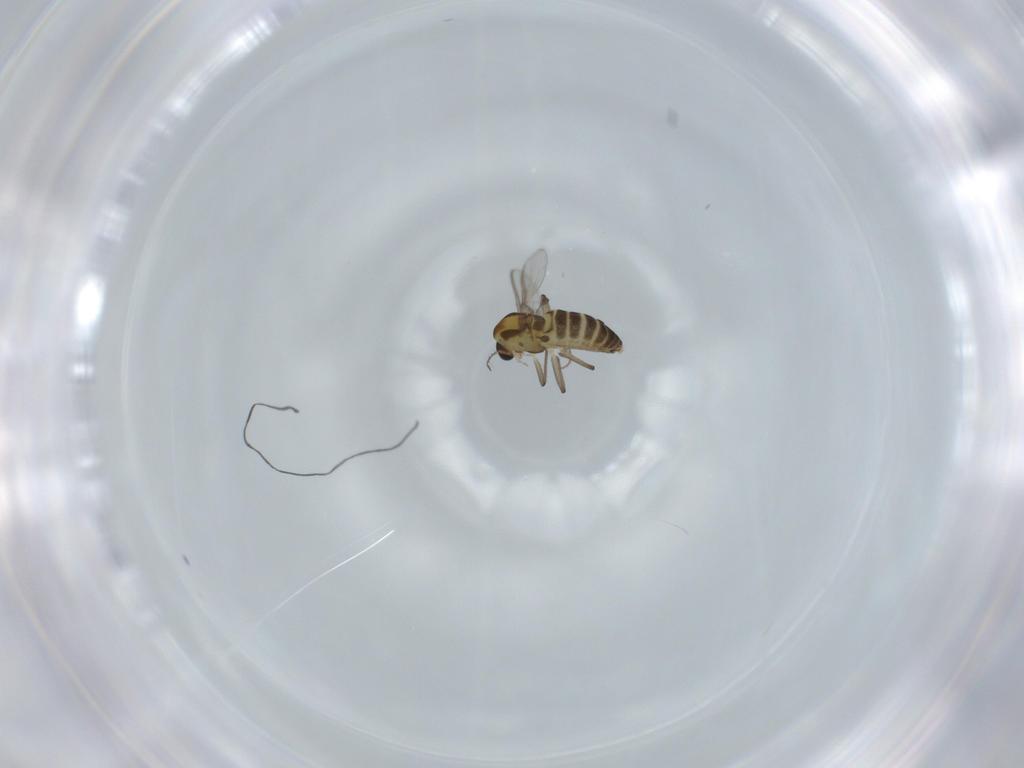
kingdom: Animalia
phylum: Arthropoda
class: Insecta
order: Diptera
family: Chironomidae
